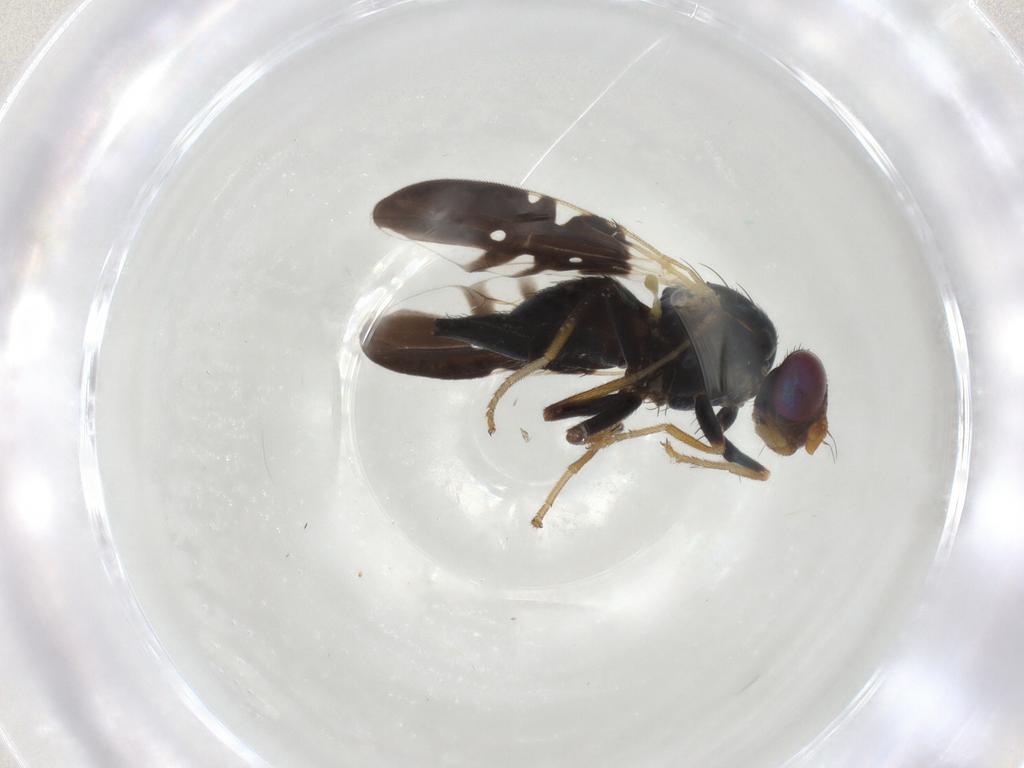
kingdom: Animalia
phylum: Arthropoda
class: Insecta
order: Diptera
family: Tephritidae
